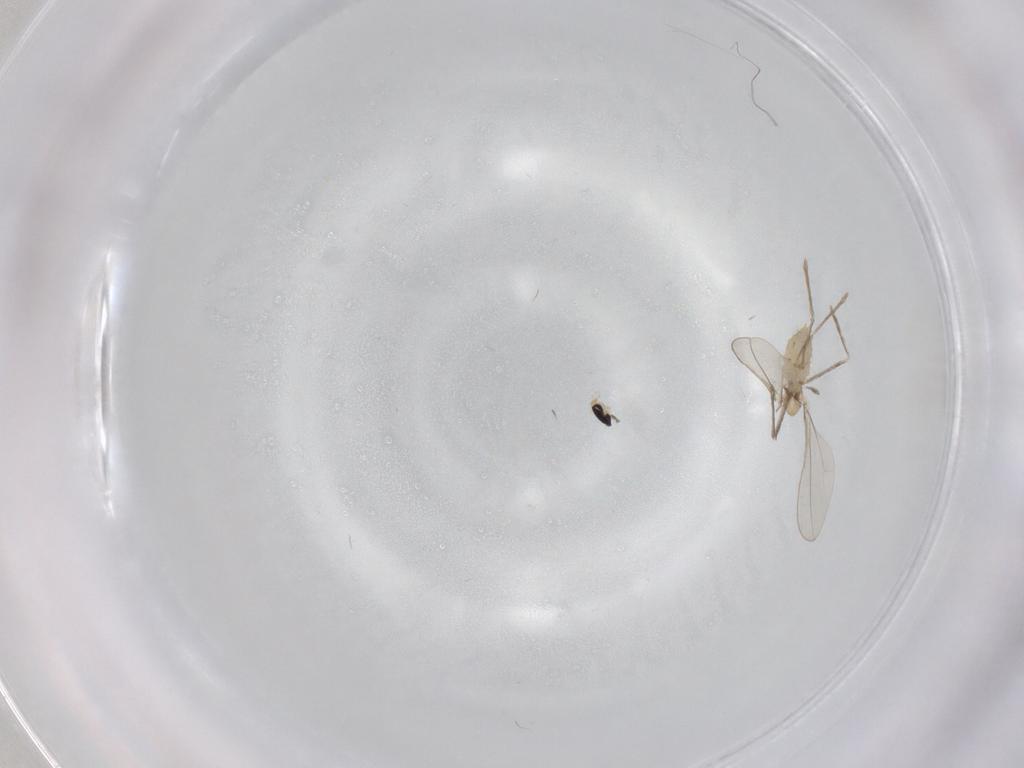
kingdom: Animalia
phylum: Arthropoda
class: Insecta
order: Diptera
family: Cecidomyiidae
